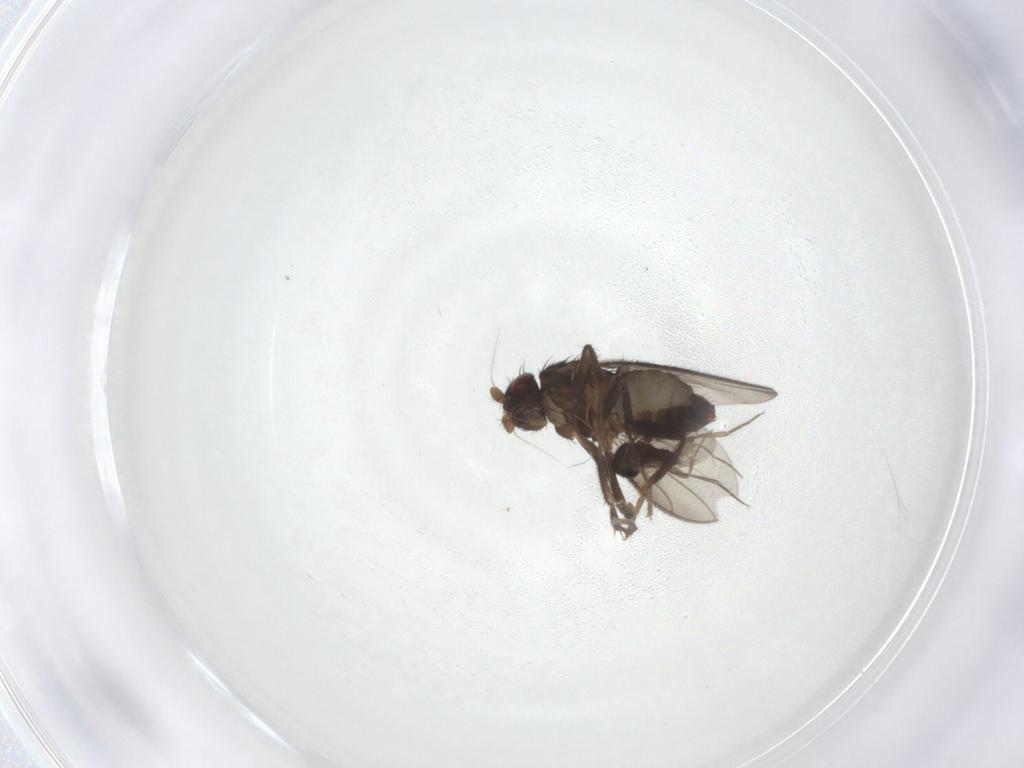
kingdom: Animalia
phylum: Arthropoda
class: Insecta
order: Diptera
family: Sphaeroceridae
